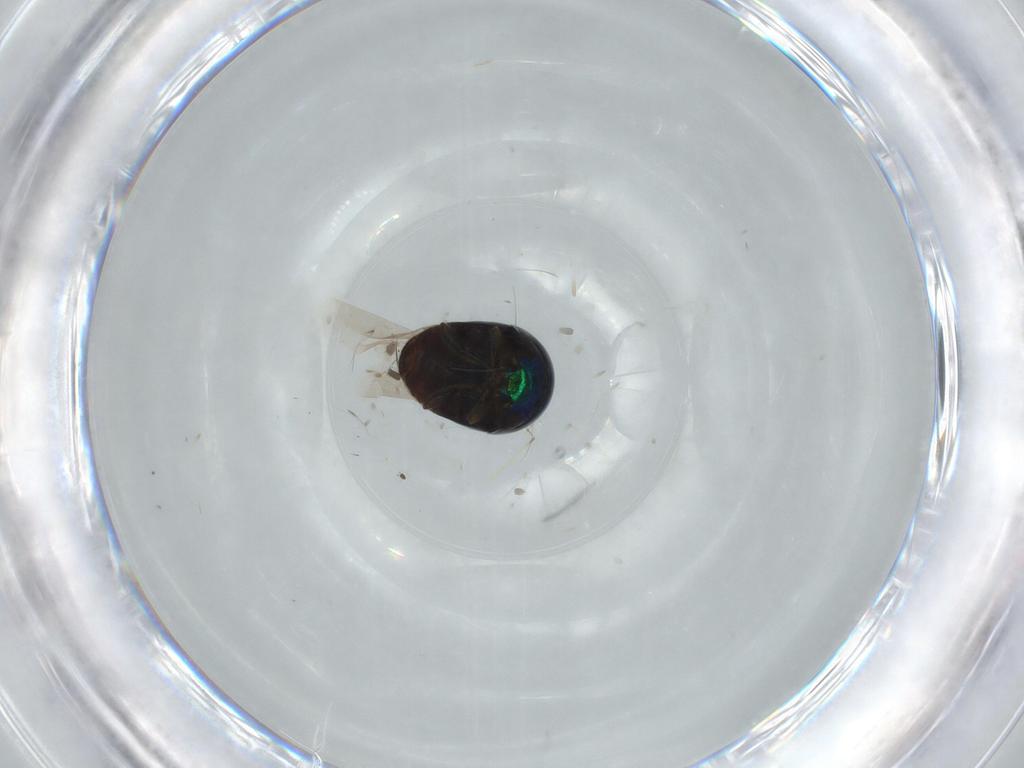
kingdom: Animalia
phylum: Arthropoda
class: Insecta
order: Coleoptera
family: Cybocephalidae
